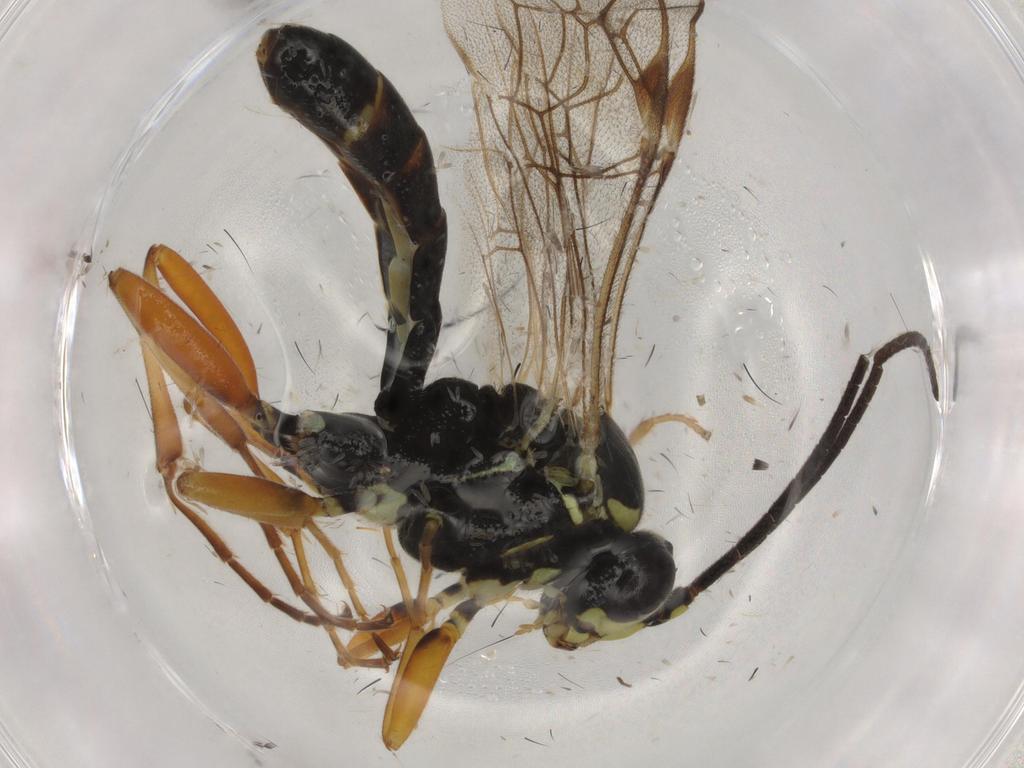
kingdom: Animalia
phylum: Arthropoda
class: Insecta
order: Hymenoptera
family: Ichneumonidae
